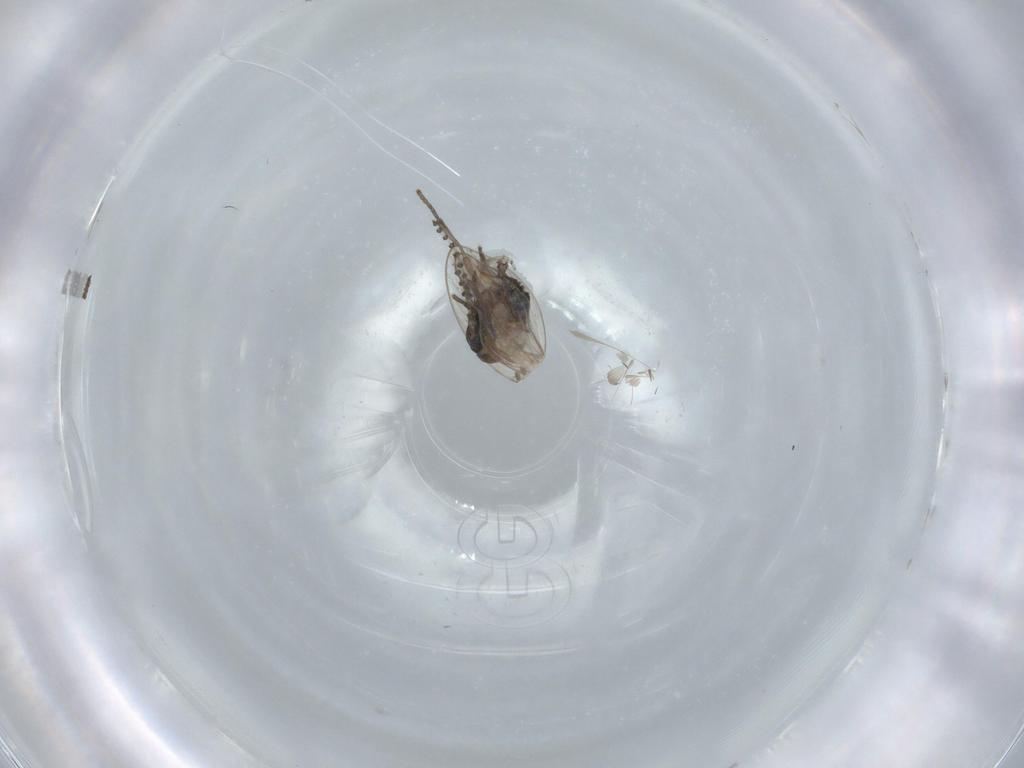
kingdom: Animalia
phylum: Arthropoda
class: Insecta
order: Diptera
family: Psychodidae
